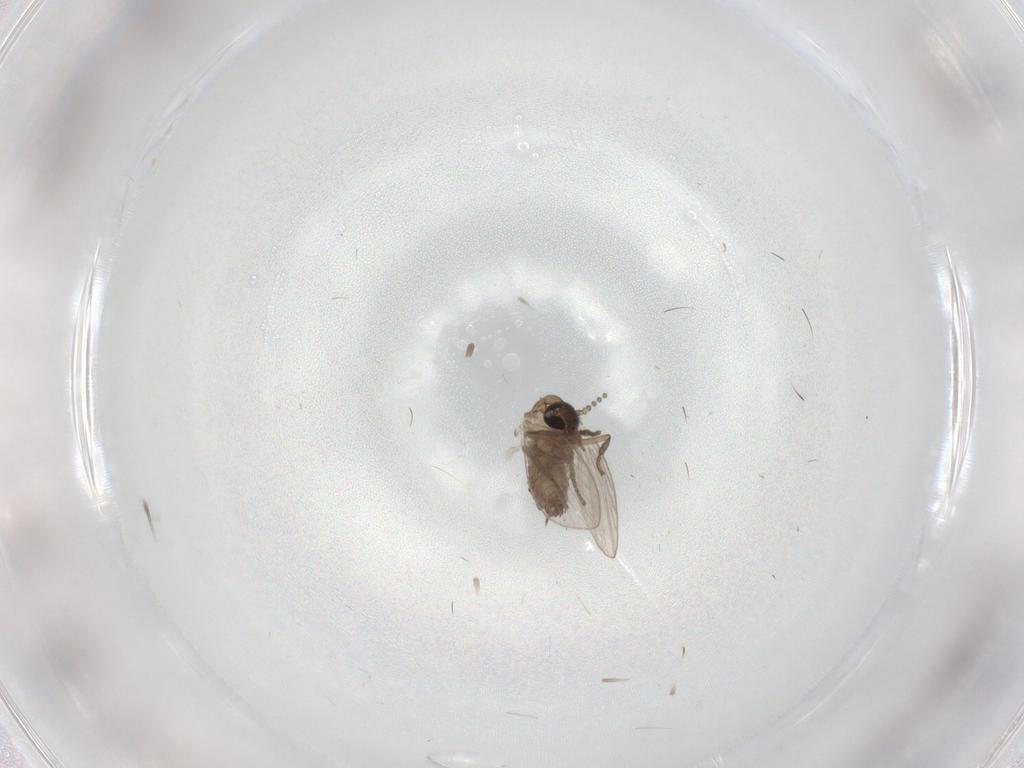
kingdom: Animalia
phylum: Arthropoda
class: Insecta
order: Diptera
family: Psychodidae
